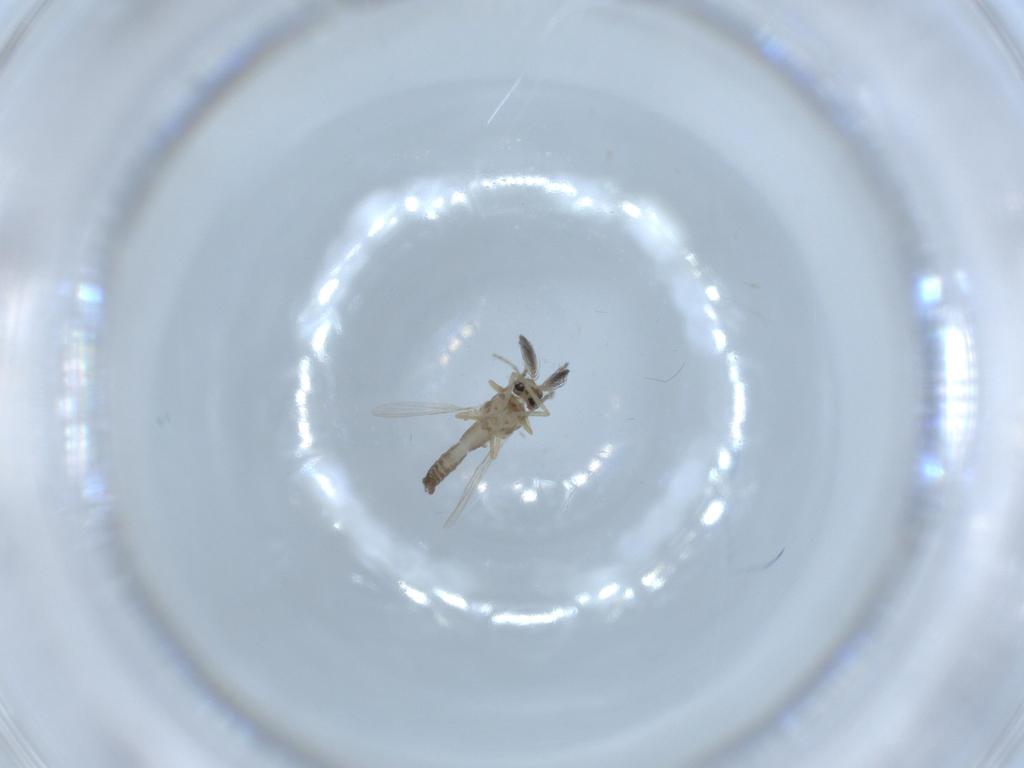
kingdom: Animalia
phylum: Arthropoda
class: Insecta
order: Diptera
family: Ceratopogonidae
